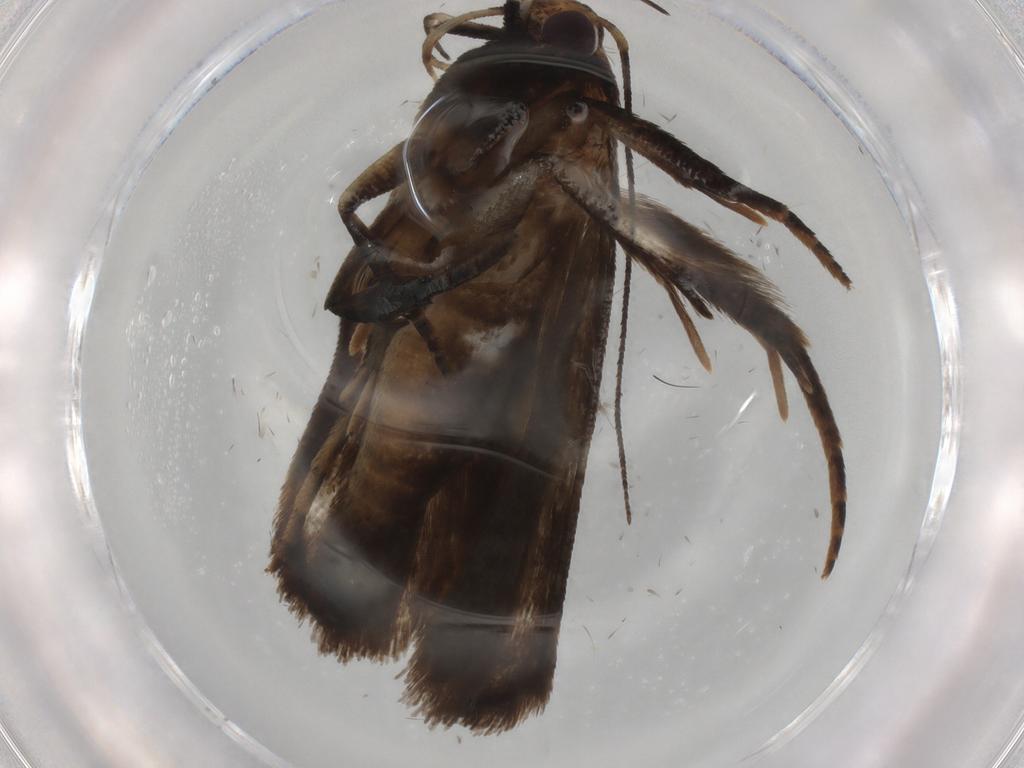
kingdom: Animalia
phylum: Arthropoda
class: Insecta
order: Lepidoptera
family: Gelechiidae
